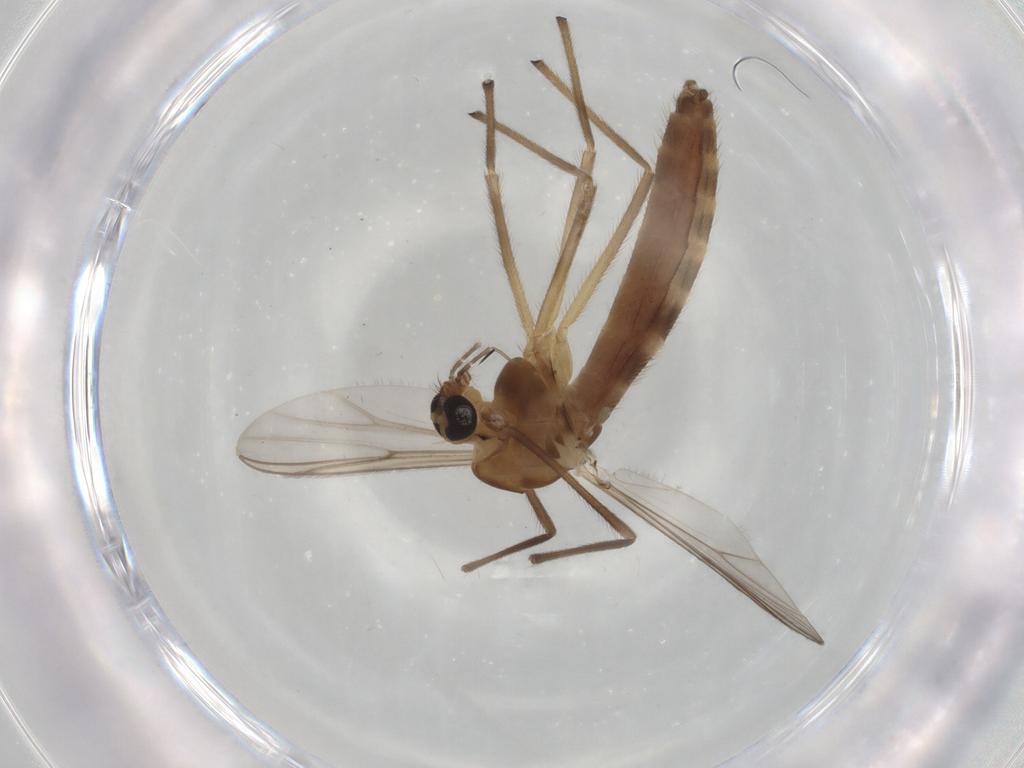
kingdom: Animalia
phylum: Arthropoda
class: Insecta
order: Diptera
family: Chironomidae
